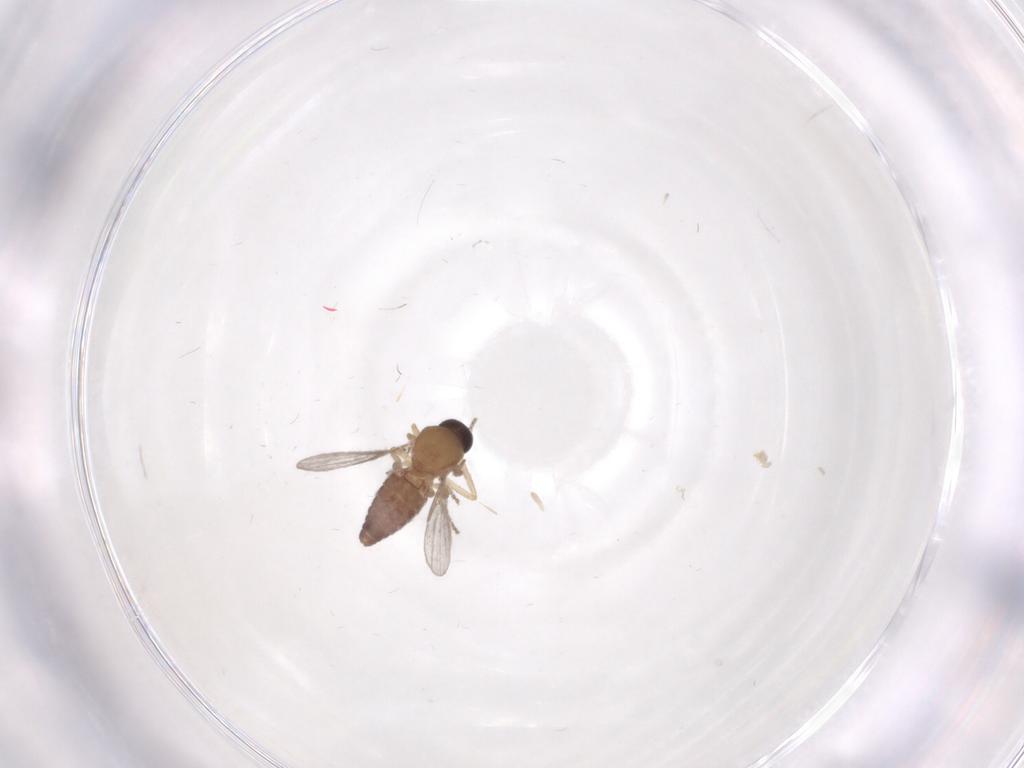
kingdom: Animalia
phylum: Arthropoda
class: Insecta
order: Diptera
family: Ceratopogonidae
